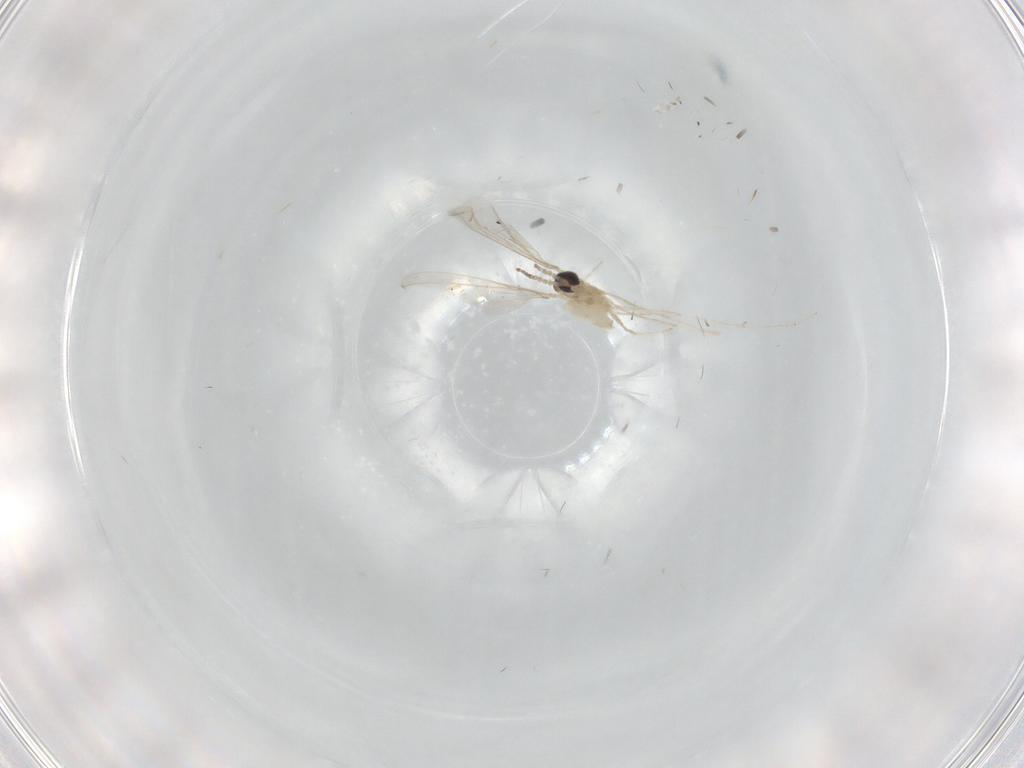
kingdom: Animalia
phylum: Arthropoda
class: Insecta
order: Diptera
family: Cecidomyiidae
